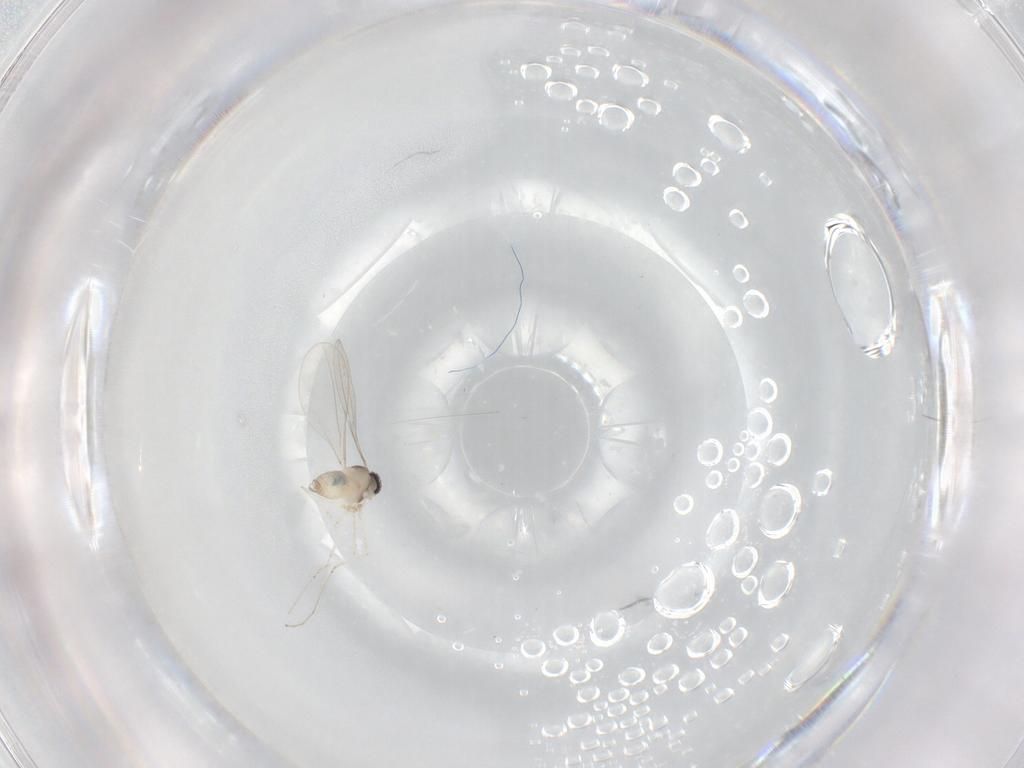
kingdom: Animalia
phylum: Arthropoda
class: Insecta
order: Diptera
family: Cecidomyiidae
